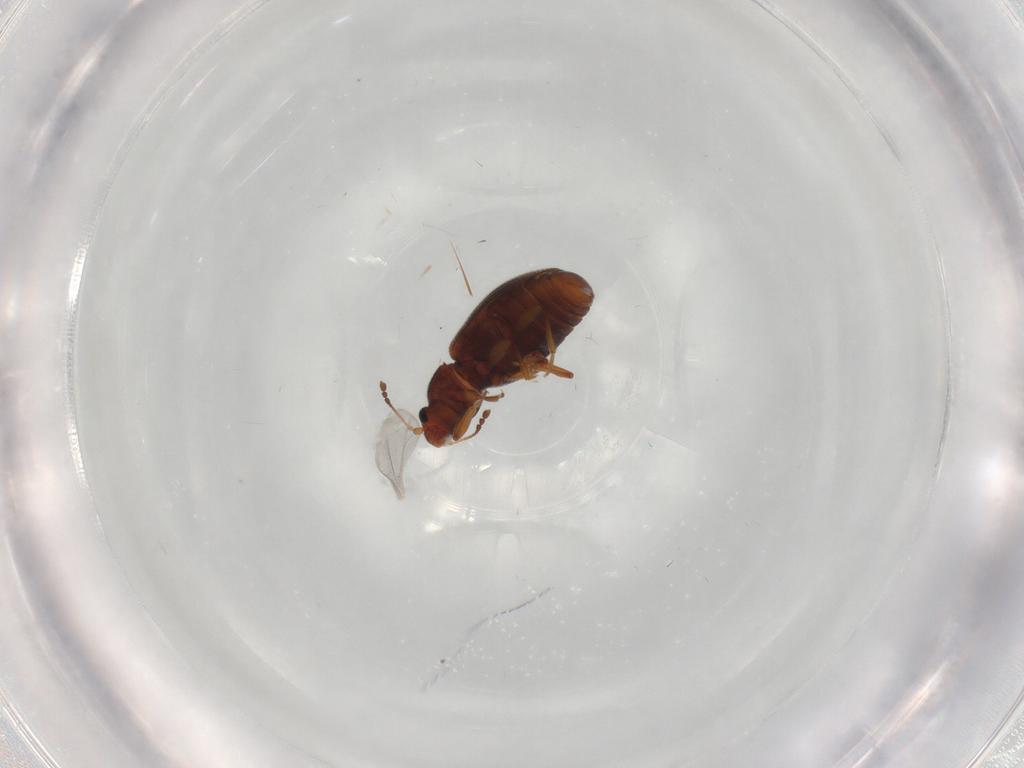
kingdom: Animalia
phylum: Arthropoda
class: Insecta
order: Coleoptera
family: Latridiidae
